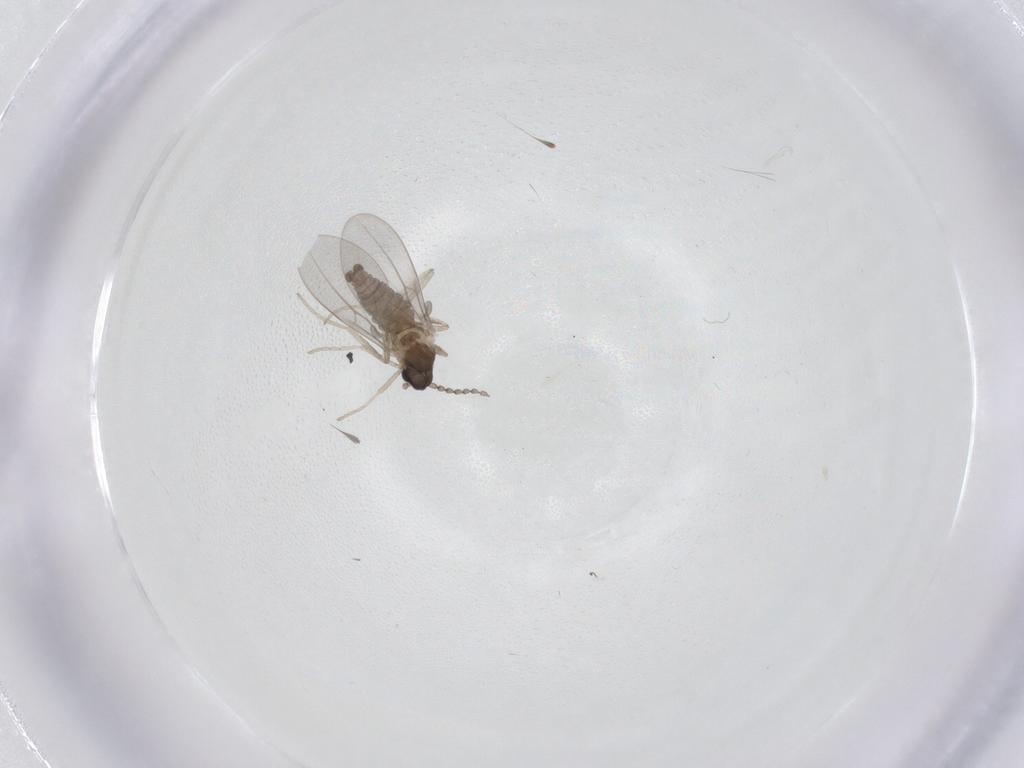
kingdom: Animalia
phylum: Arthropoda
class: Insecta
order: Diptera
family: Cecidomyiidae
